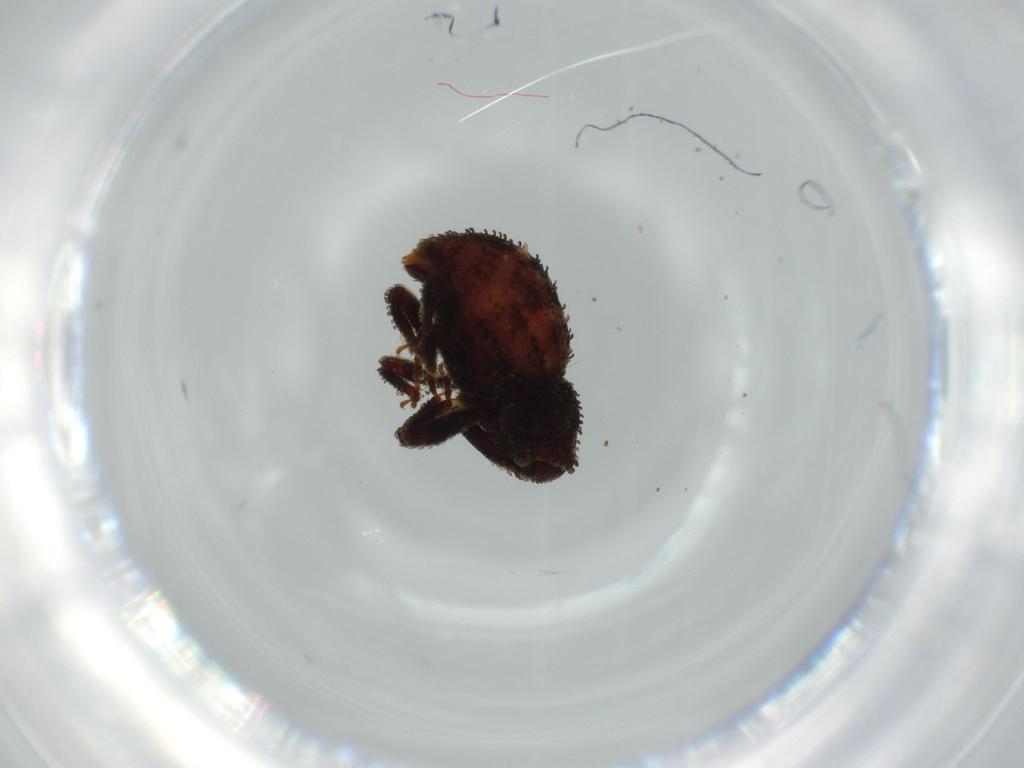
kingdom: Animalia
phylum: Arthropoda
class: Insecta
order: Coleoptera
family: Curculionidae
